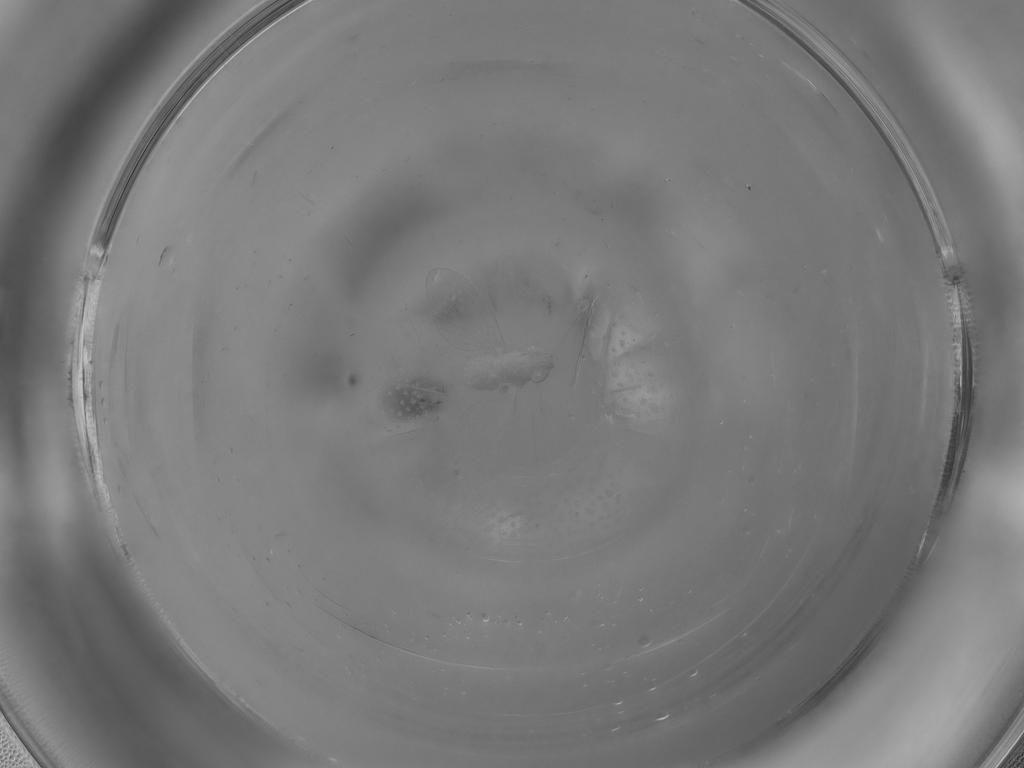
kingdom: Animalia
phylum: Arthropoda
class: Insecta
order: Diptera
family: Psychodidae
